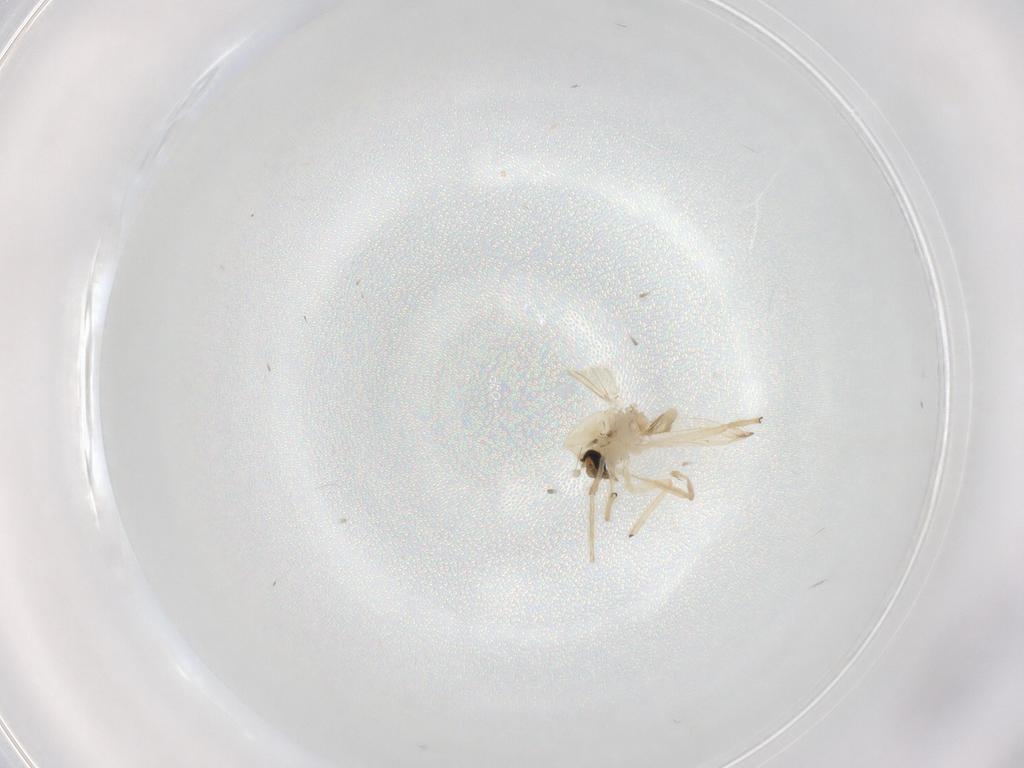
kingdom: Animalia
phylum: Arthropoda
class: Insecta
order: Diptera
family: Chironomidae
